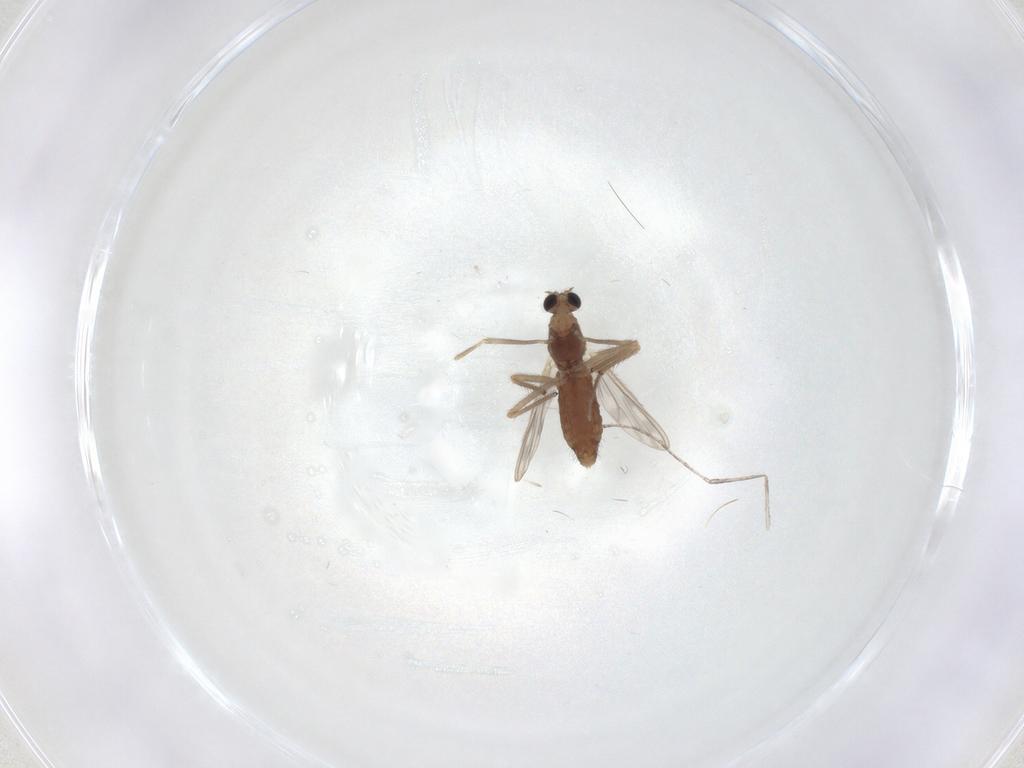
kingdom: Animalia
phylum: Arthropoda
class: Insecta
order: Diptera
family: Chironomidae
